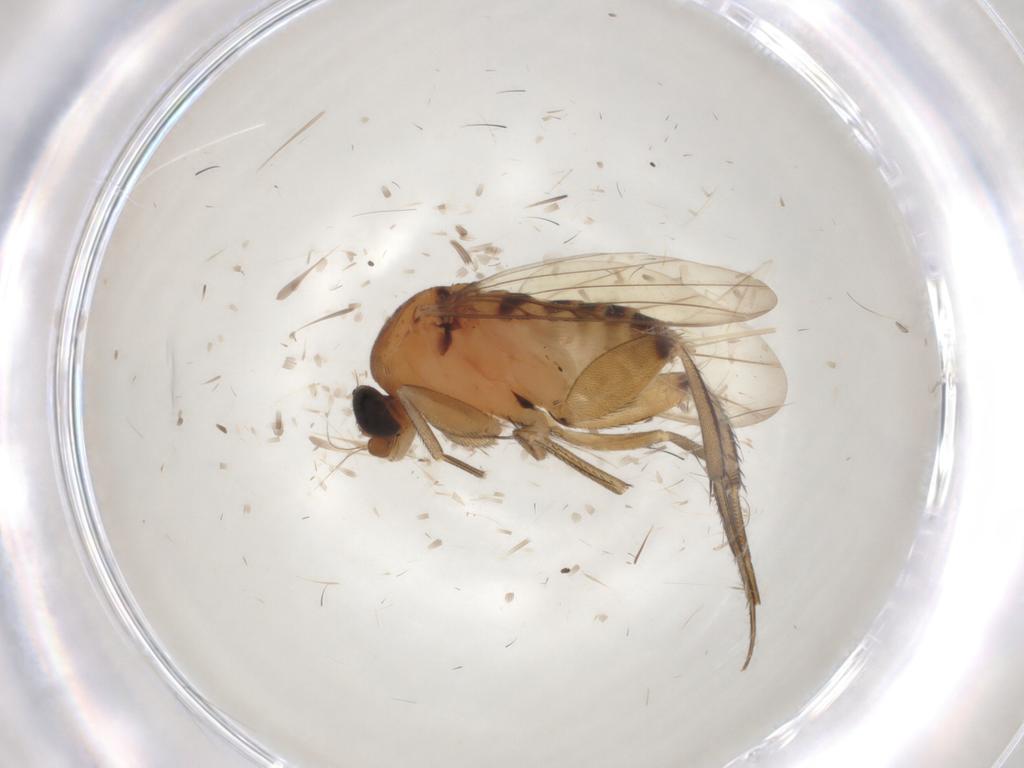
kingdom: Animalia
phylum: Arthropoda
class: Insecta
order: Diptera
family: Phoridae
